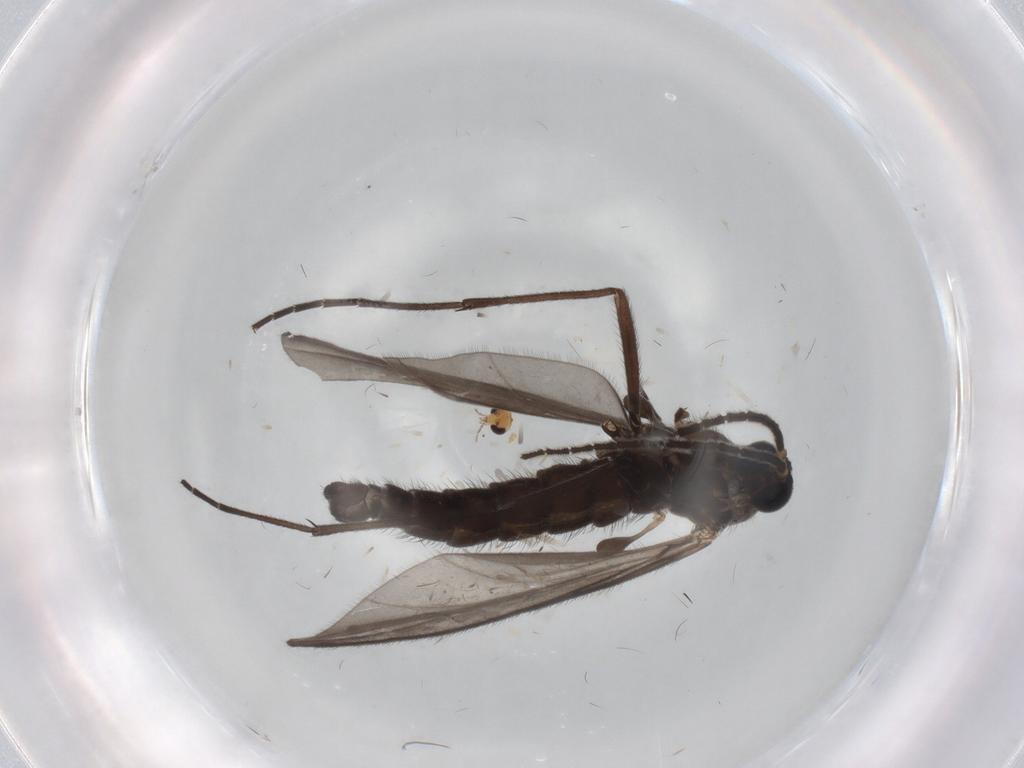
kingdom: Animalia
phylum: Arthropoda
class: Insecta
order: Diptera
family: Sciaridae
